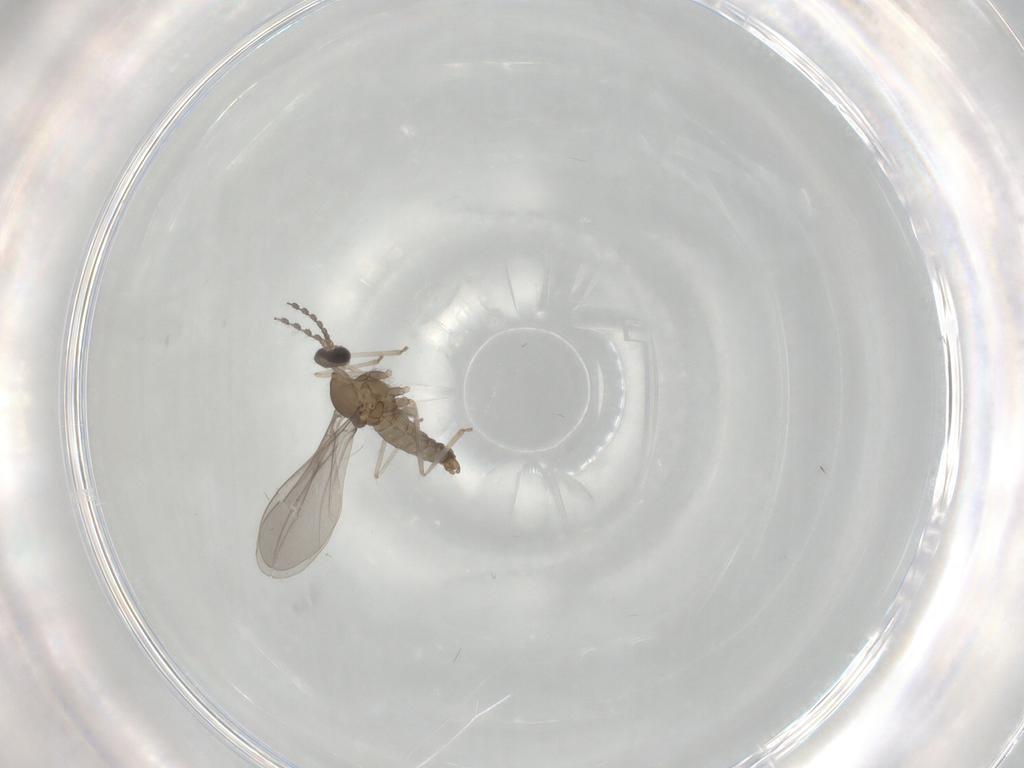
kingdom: Animalia
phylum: Arthropoda
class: Insecta
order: Diptera
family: Cecidomyiidae
